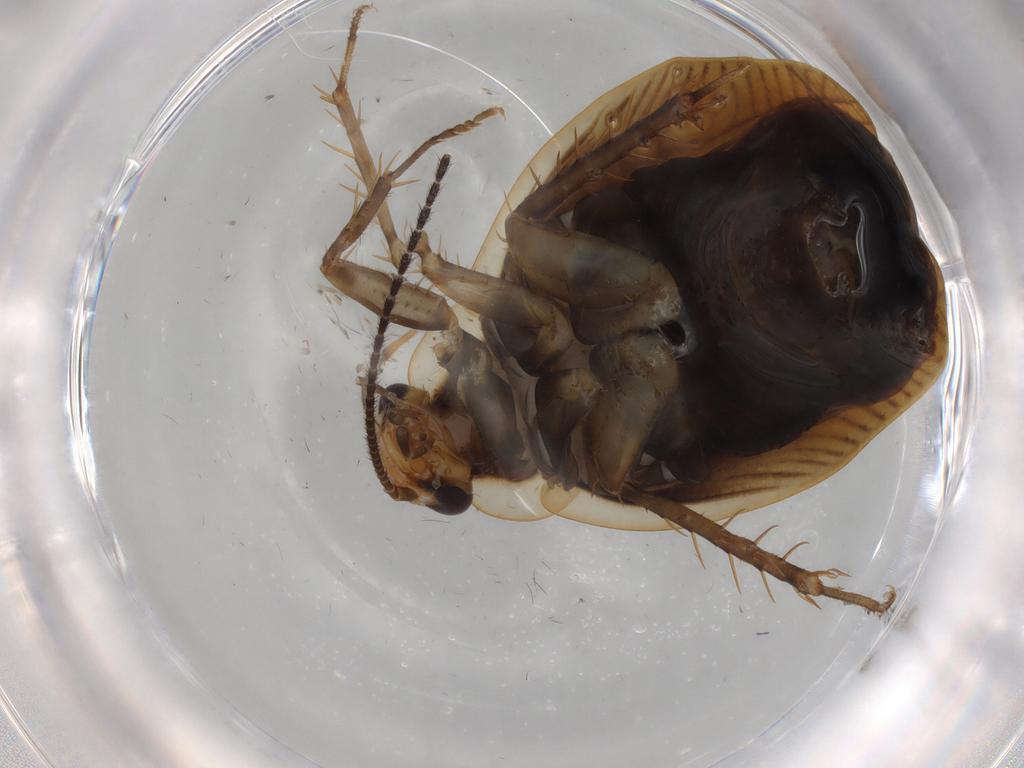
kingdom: Animalia
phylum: Arthropoda
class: Insecta
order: Blattodea
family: Ectobiidae
